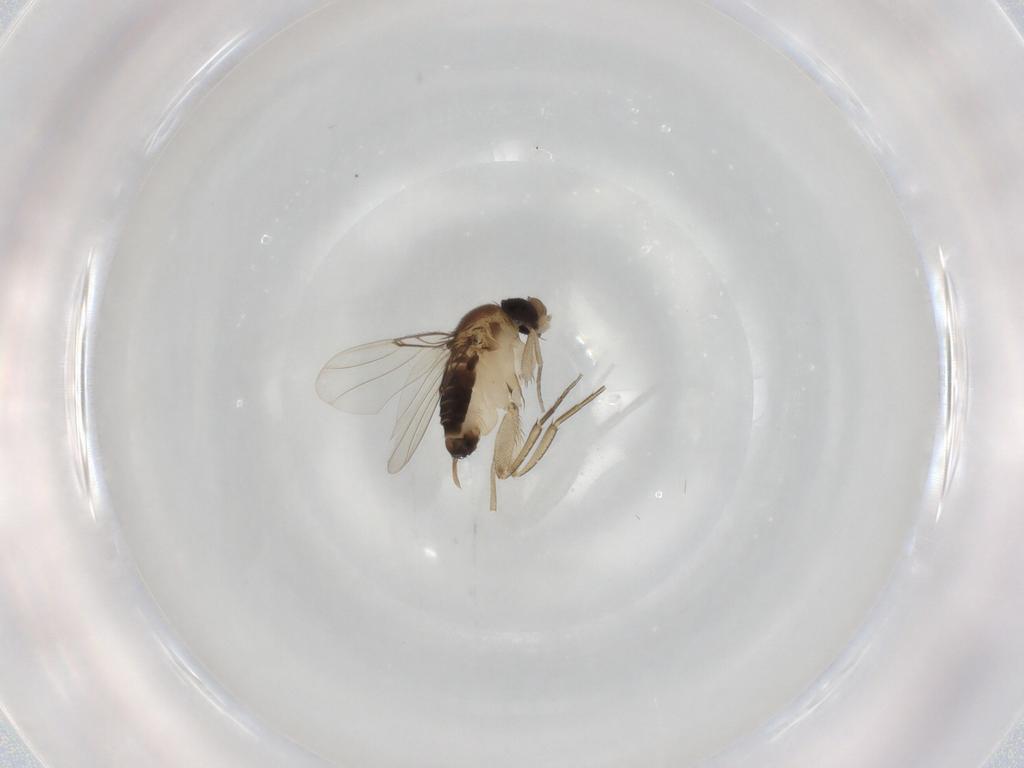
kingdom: Animalia
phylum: Arthropoda
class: Insecta
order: Diptera
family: Phoridae
